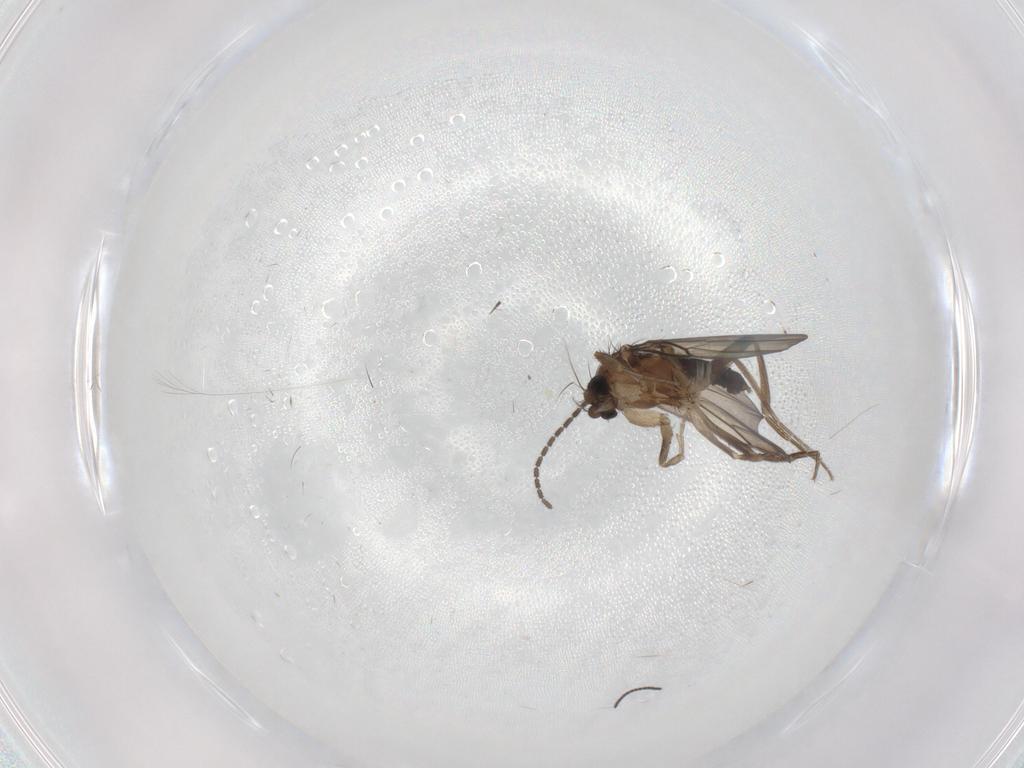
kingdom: Animalia
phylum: Arthropoda
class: Insecta
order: Diptera
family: Phoridae
